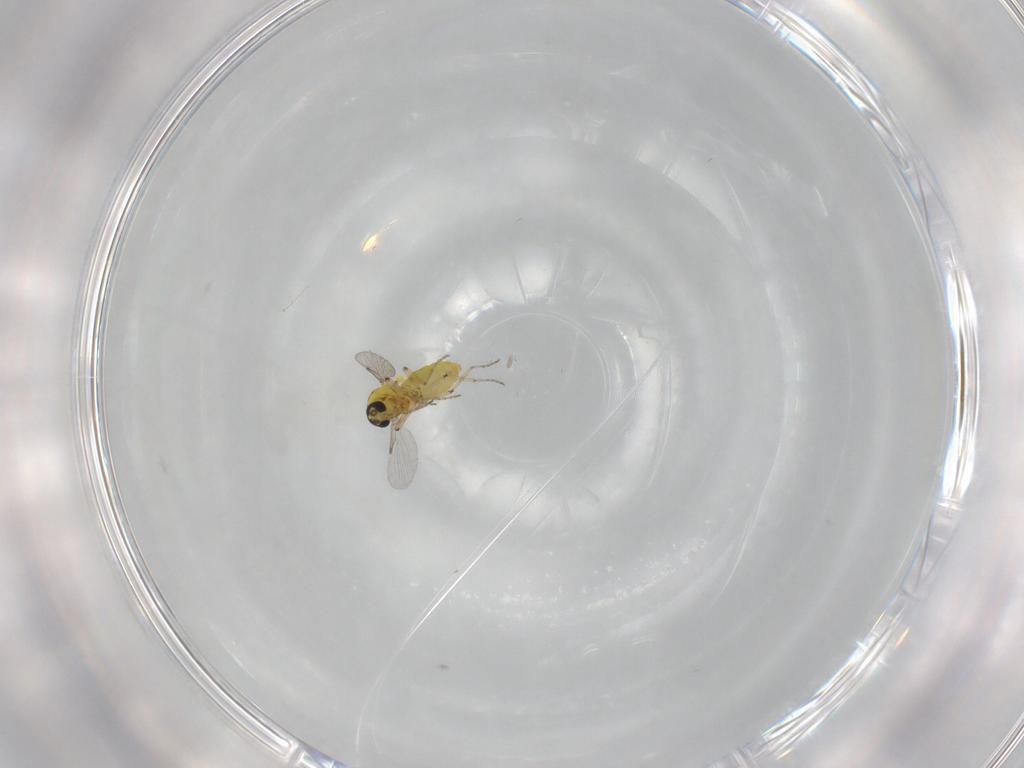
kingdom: Animalia
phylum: Arthropoda
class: Insecta
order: Diptera
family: Ceratopogonidae
